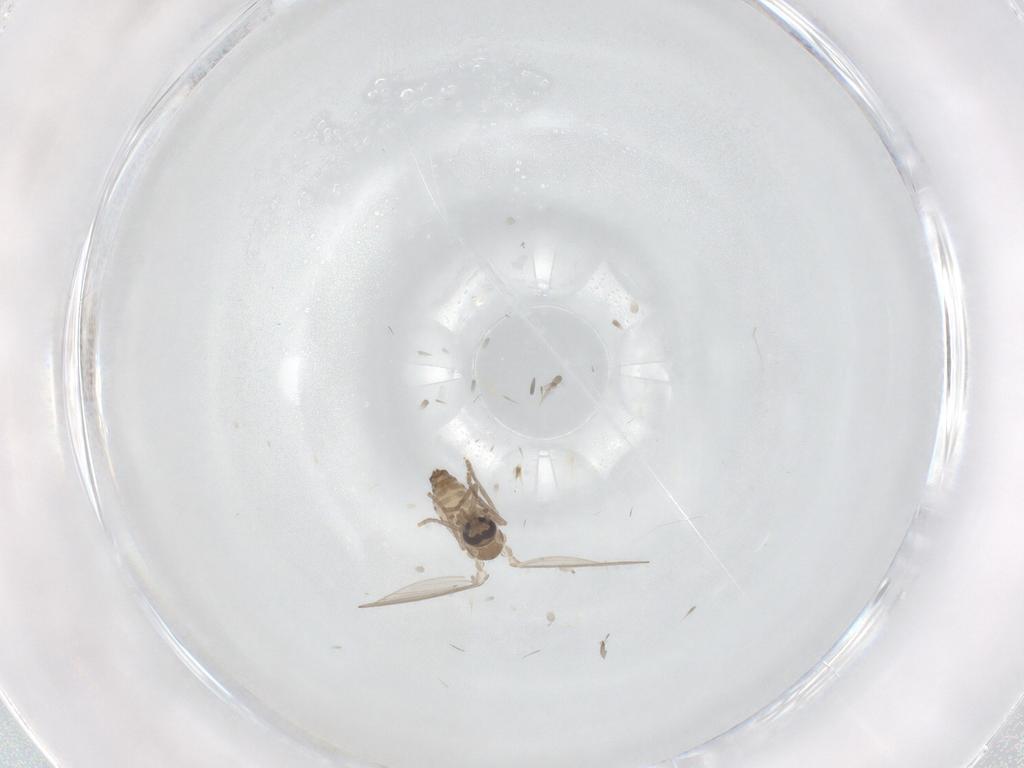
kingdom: Animalia
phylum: Arthropoda
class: Insecta
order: Diptera
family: Psychodidae
